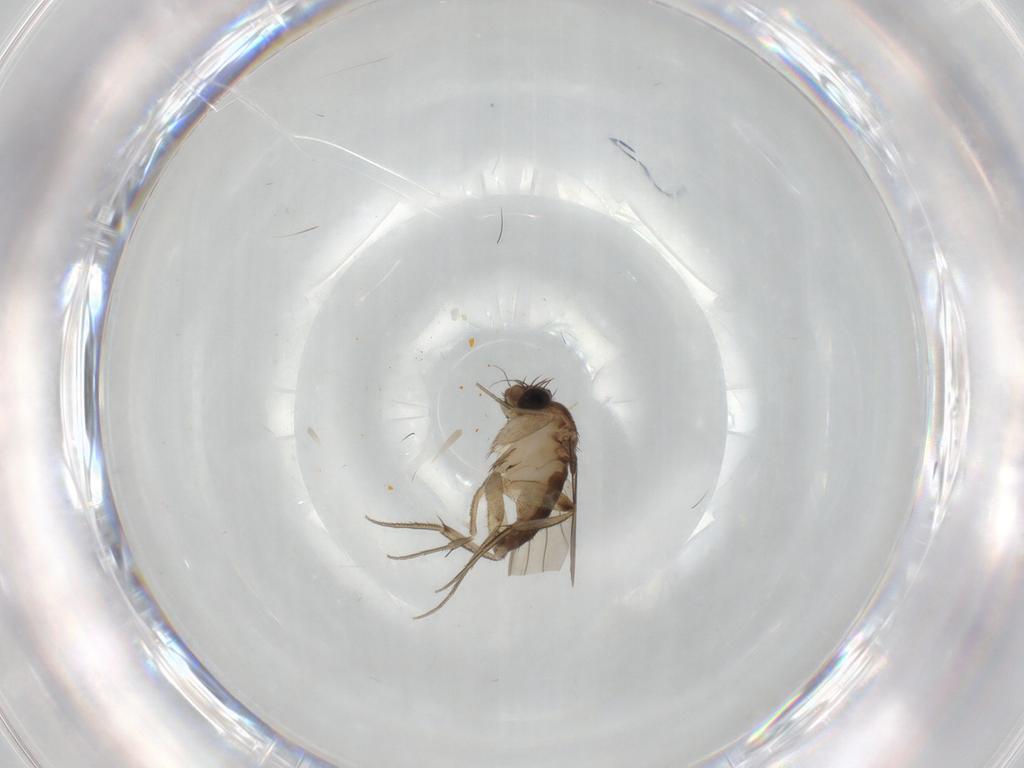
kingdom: Animalia
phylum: Arthropoda
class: Insecta
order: Diptera
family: Phoridae
